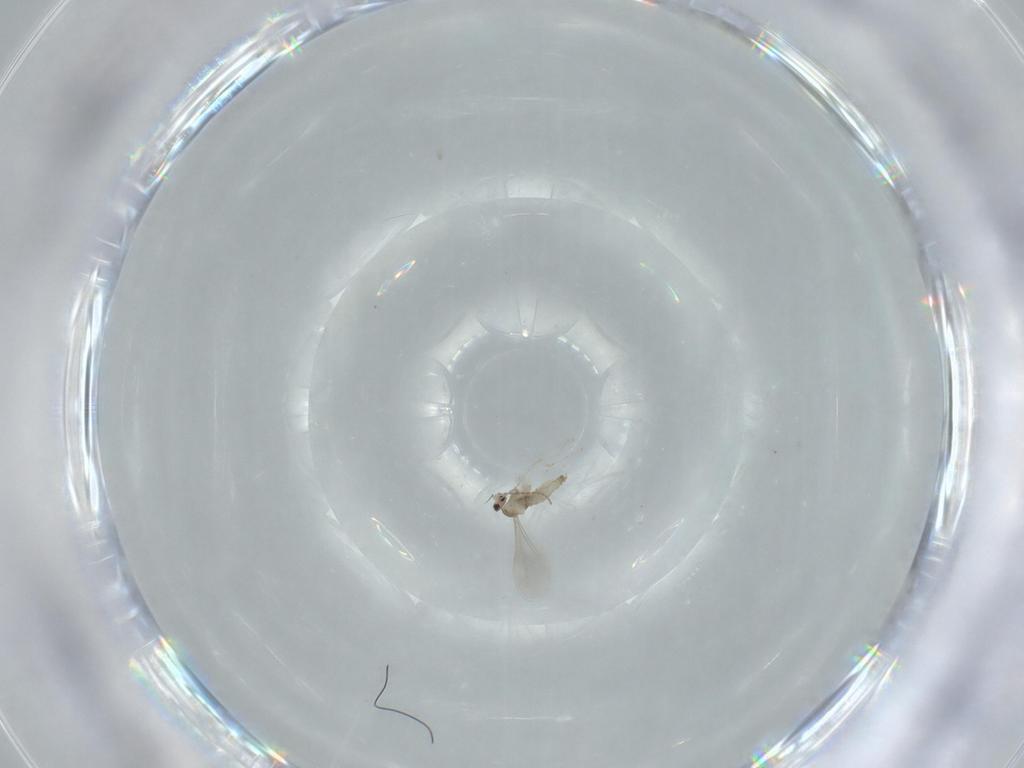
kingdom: Animalia
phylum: Arthropoda
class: Insecta
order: Diptera
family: Cecidomyiidae
